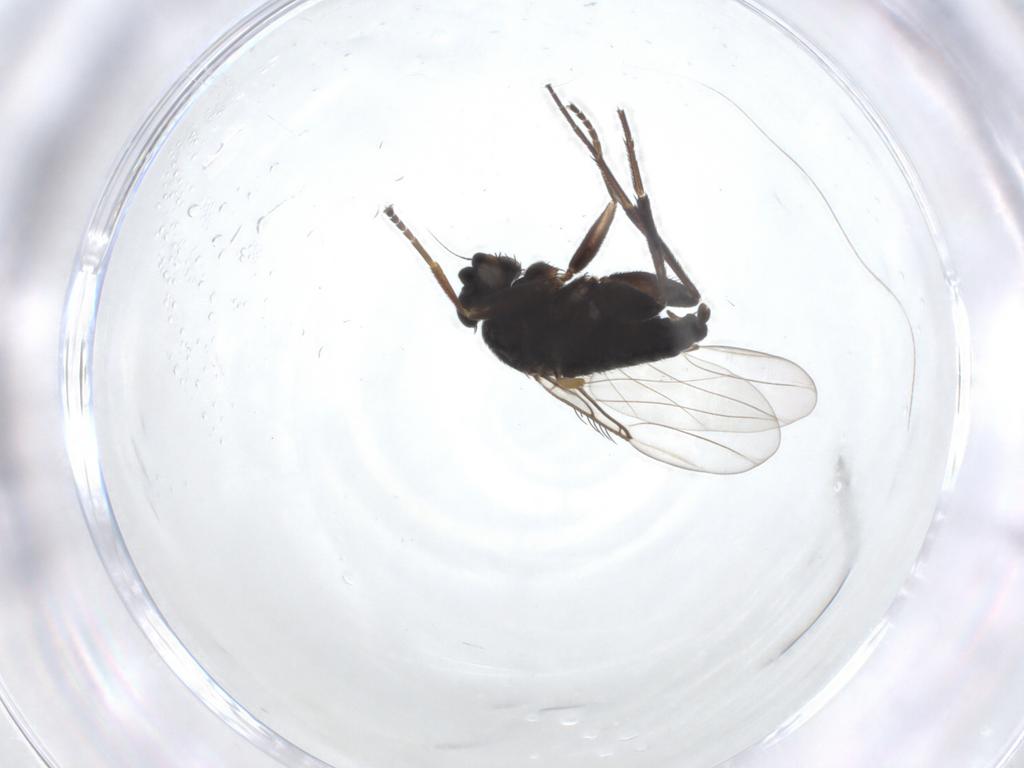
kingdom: Animalia
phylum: Arthropoda
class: Insecta
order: Diptera
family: Phoridae
